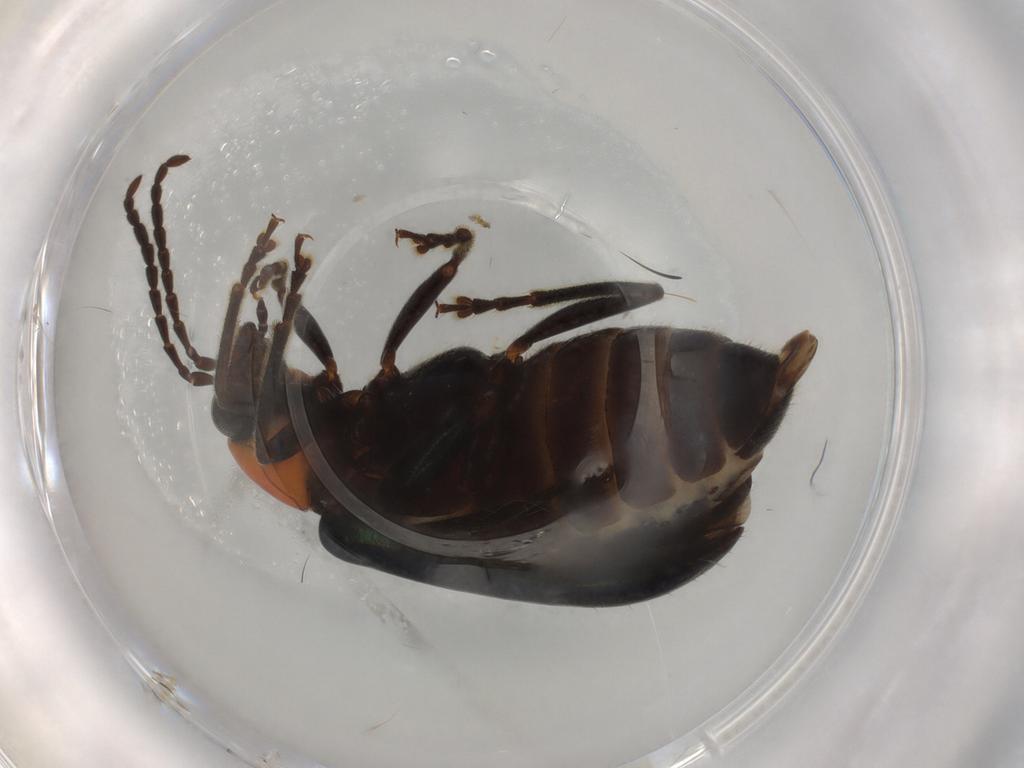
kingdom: Animalia
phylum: Arthropoda
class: Insecta
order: Coleoptera
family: Chrysomelidae
